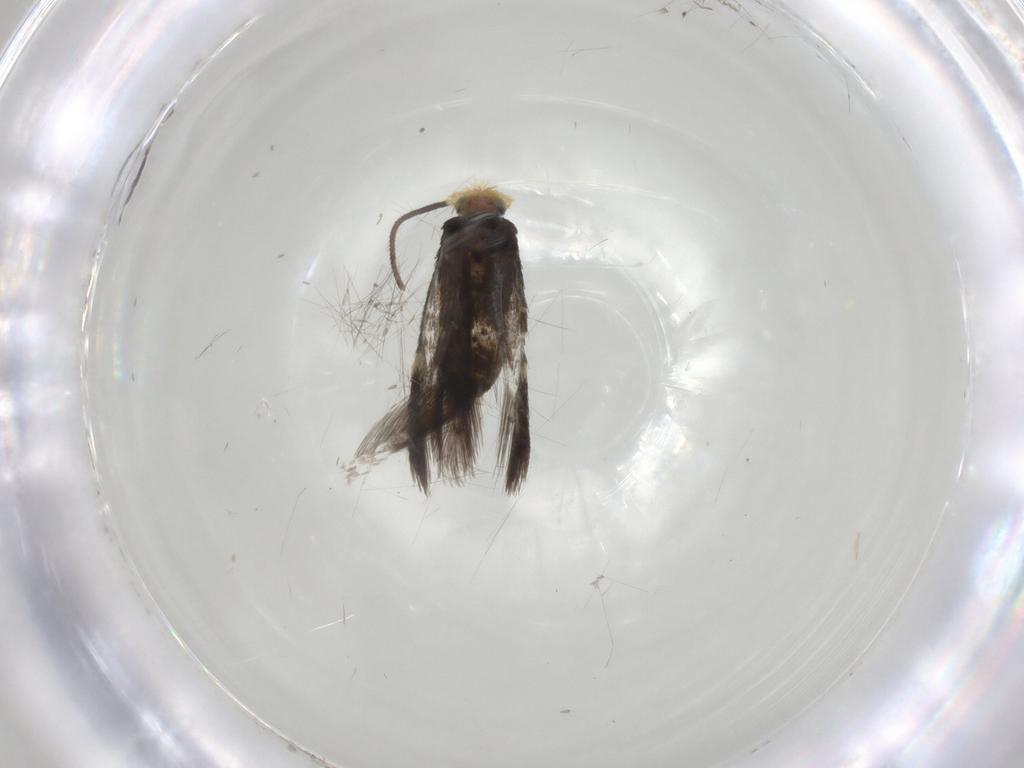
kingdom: Animalia
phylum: Arthropoda
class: Insecta
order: Lepidoptera
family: Nepticulidae
